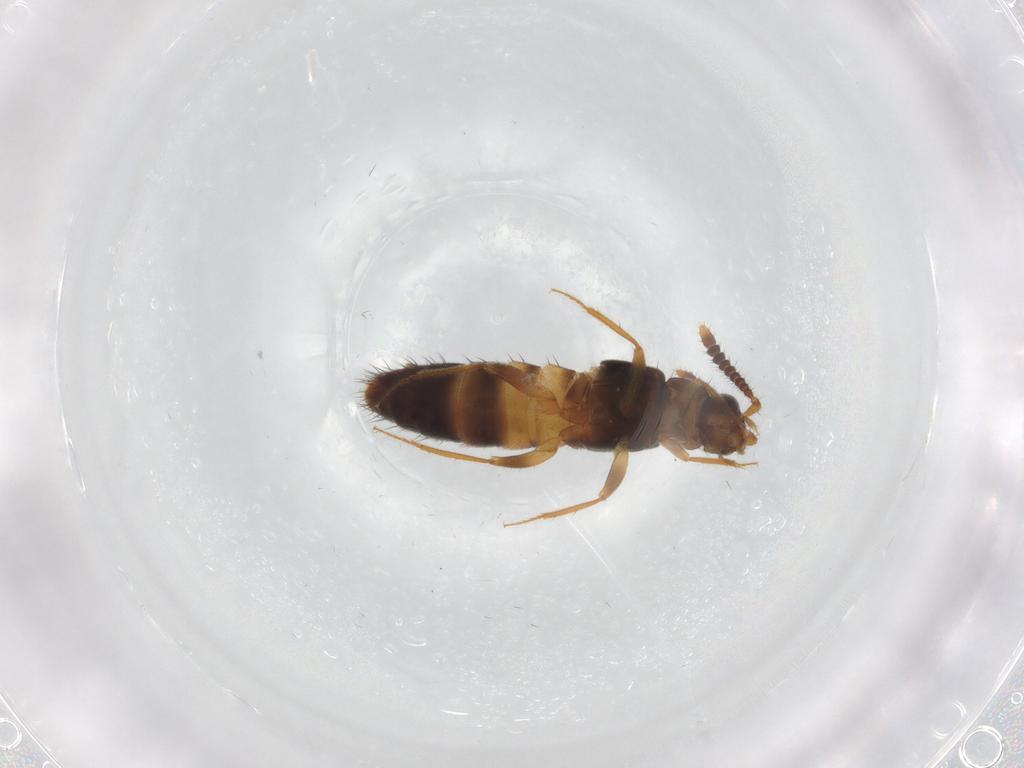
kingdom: Animalia
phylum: Arthropoda
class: Insecta
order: Coleoptera
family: Staphylinidae
